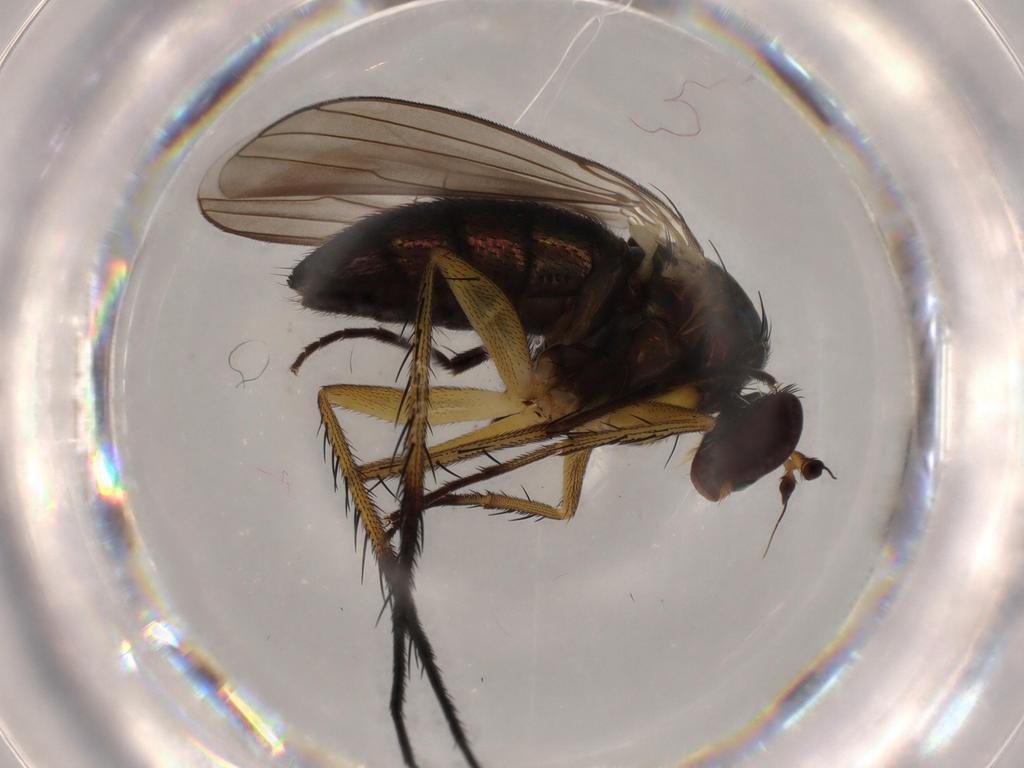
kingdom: Animalia
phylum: Arthropoda
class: Insecta
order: Diptera
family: Dolichopodidae
